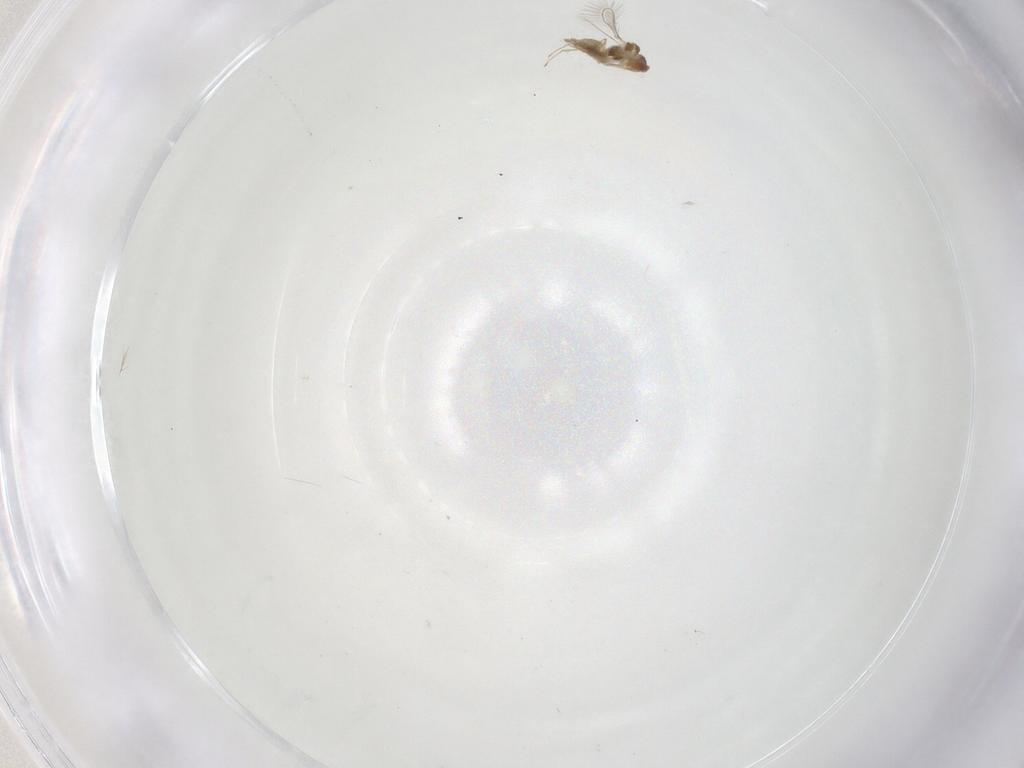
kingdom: Animalia
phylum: Arthropoda
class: Insecta
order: Hymenoptera
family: Mymaridae
